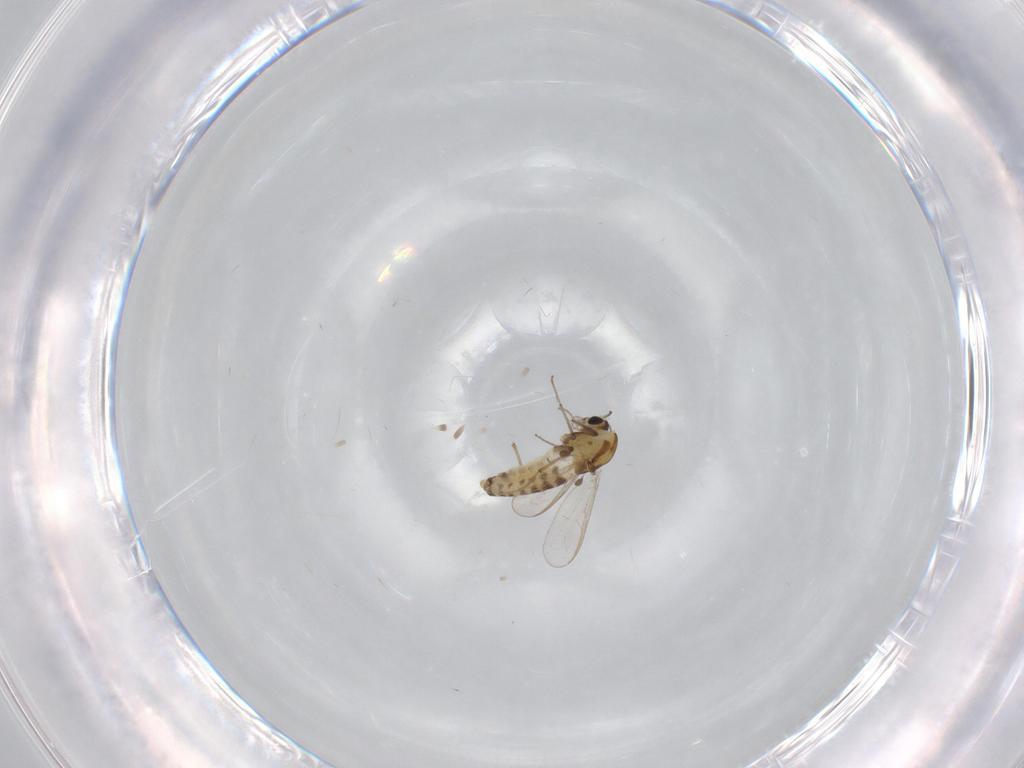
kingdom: Animalia
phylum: Arthropoda
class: Insecta
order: Diptera
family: Chironomidae
